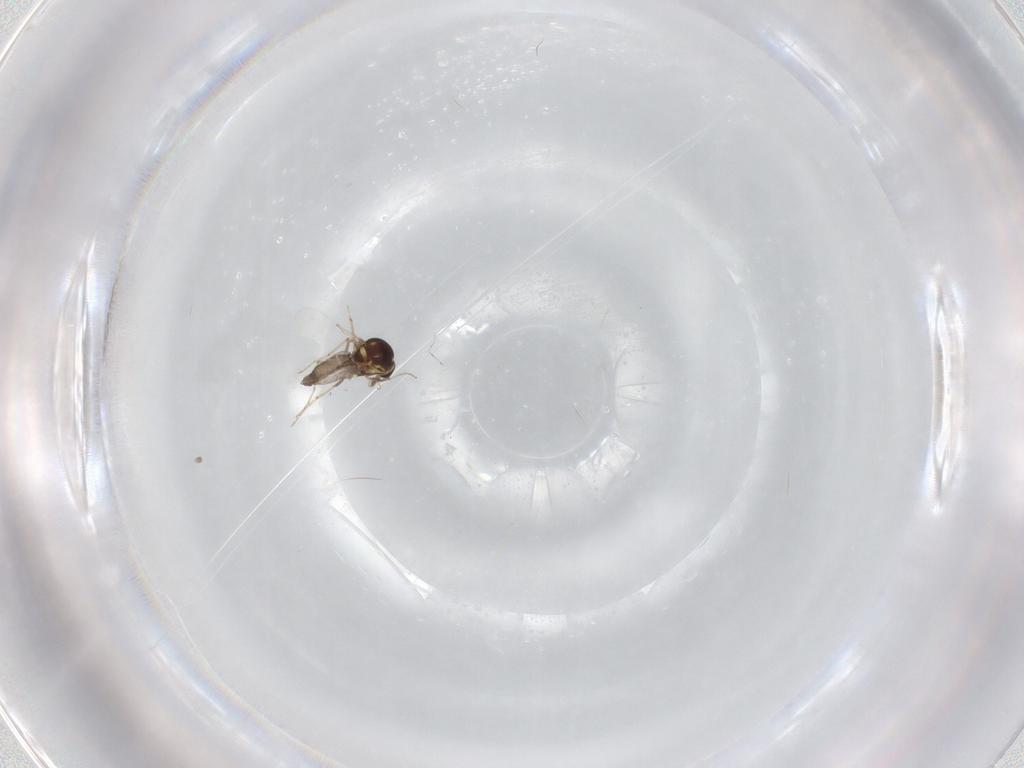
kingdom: Animalia
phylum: Arthropoda
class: Insecta
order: Diptera
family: Ceratopogonidae
